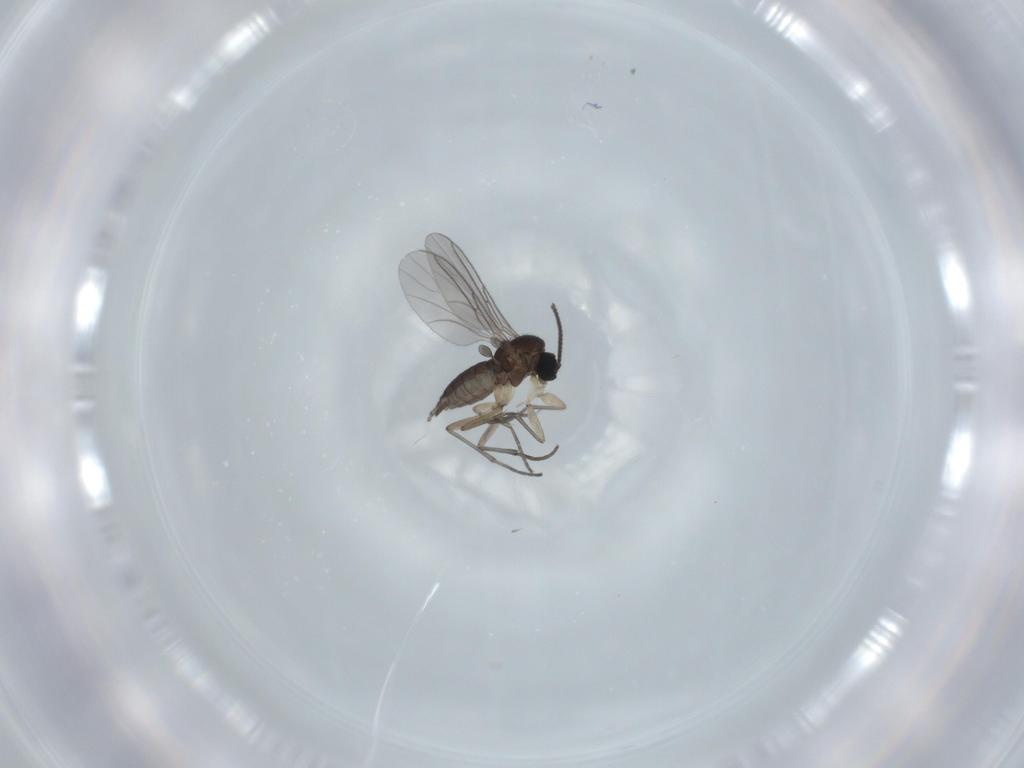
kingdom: Animalia
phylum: Arthropoda
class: Insecta
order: Diptera
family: Sciaridae
